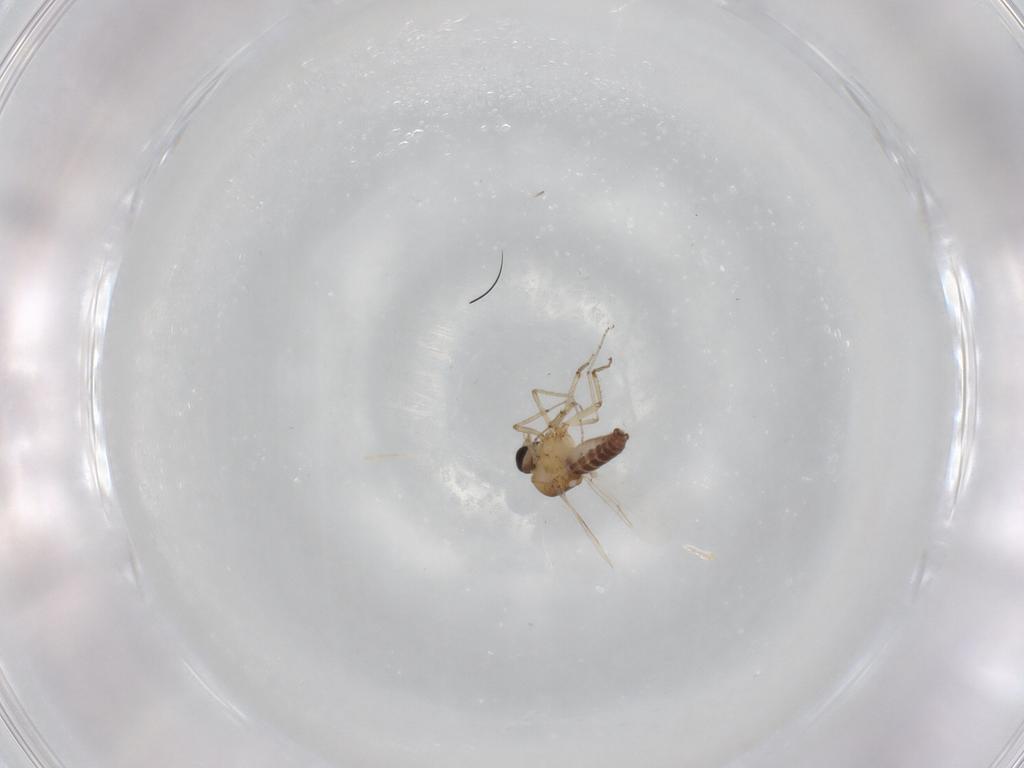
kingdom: Animalia
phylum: Arthropoda
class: Insecta
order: Diptera
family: Ceratopogonidae
